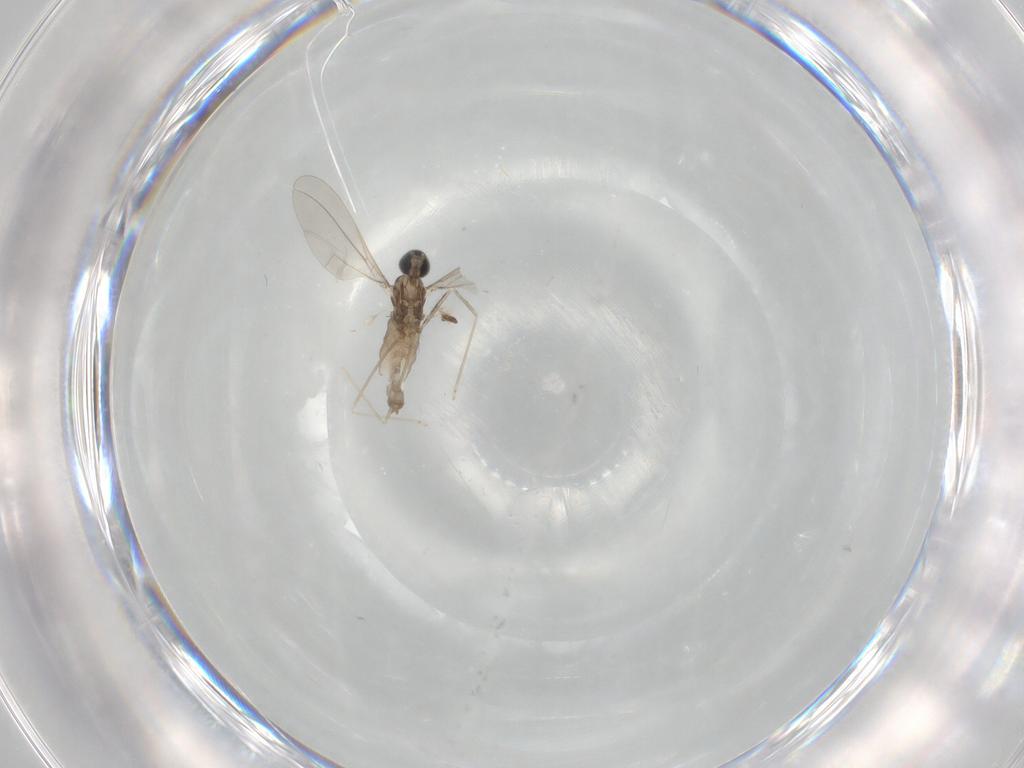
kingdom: Animalia
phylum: Arthropoda
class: Insecta
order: Diptera
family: Cecidomyiidae
